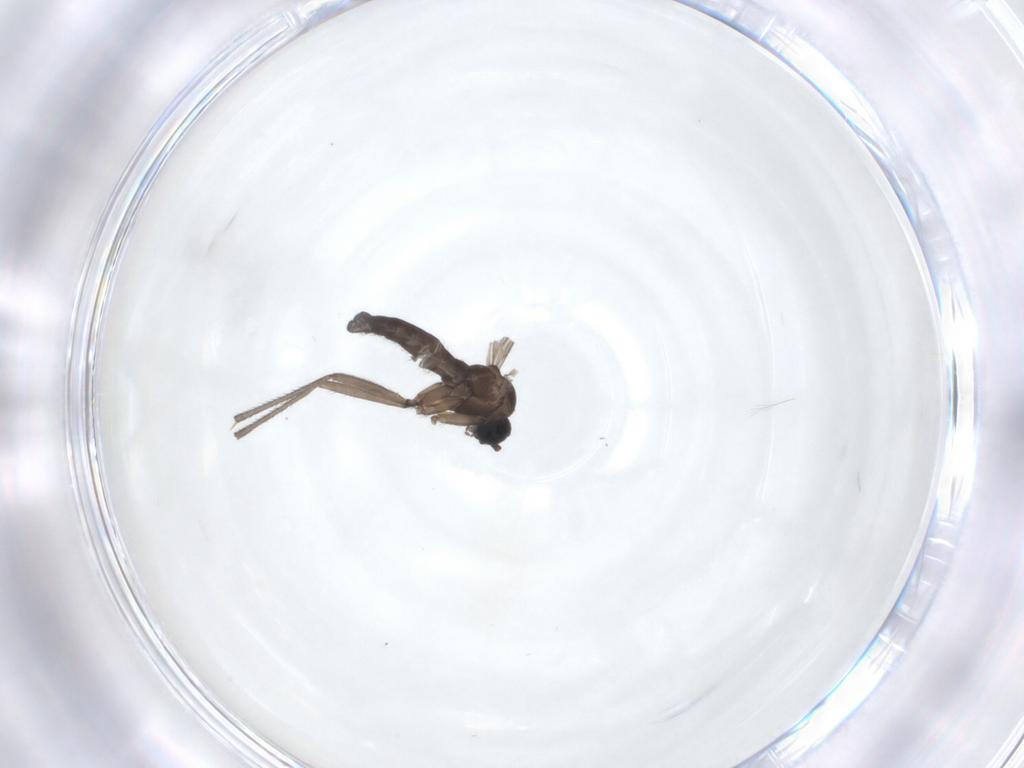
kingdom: Animalia
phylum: Arthropoda
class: Insecta
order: Diptera
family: Sciaridae
